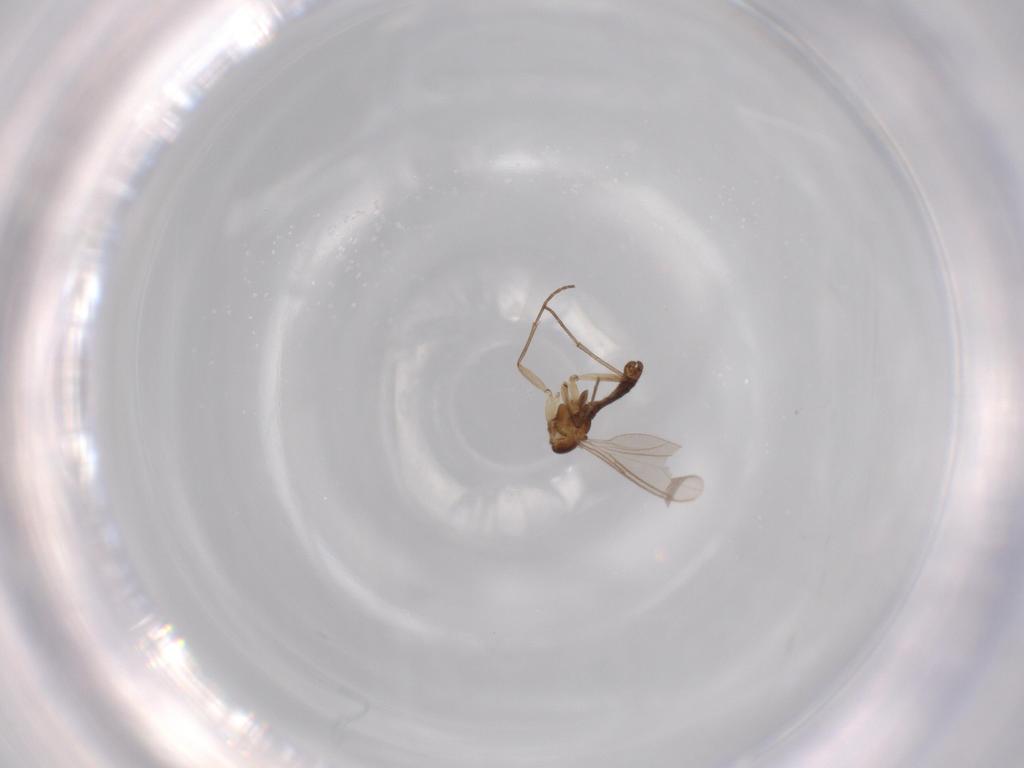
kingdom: Animalia
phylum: Arthropoda
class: Insecta
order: Diptera
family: Sciaridae
